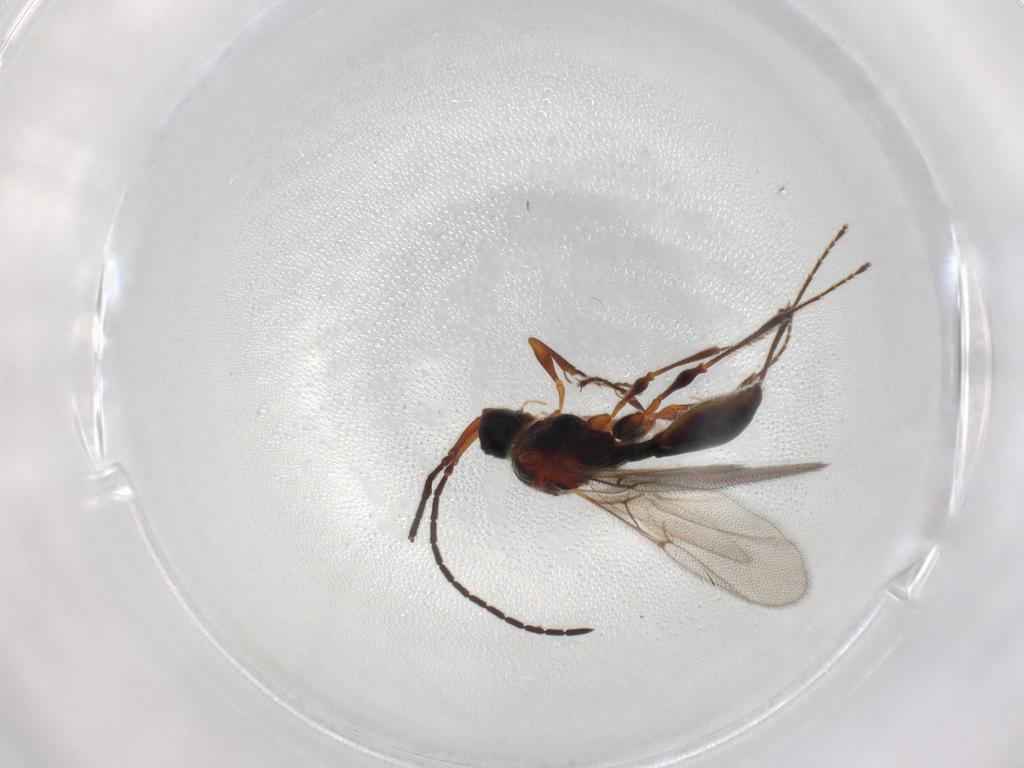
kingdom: Animalia
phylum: Arthropoda
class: Insecta
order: Hymenoptera
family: Diapriidae
